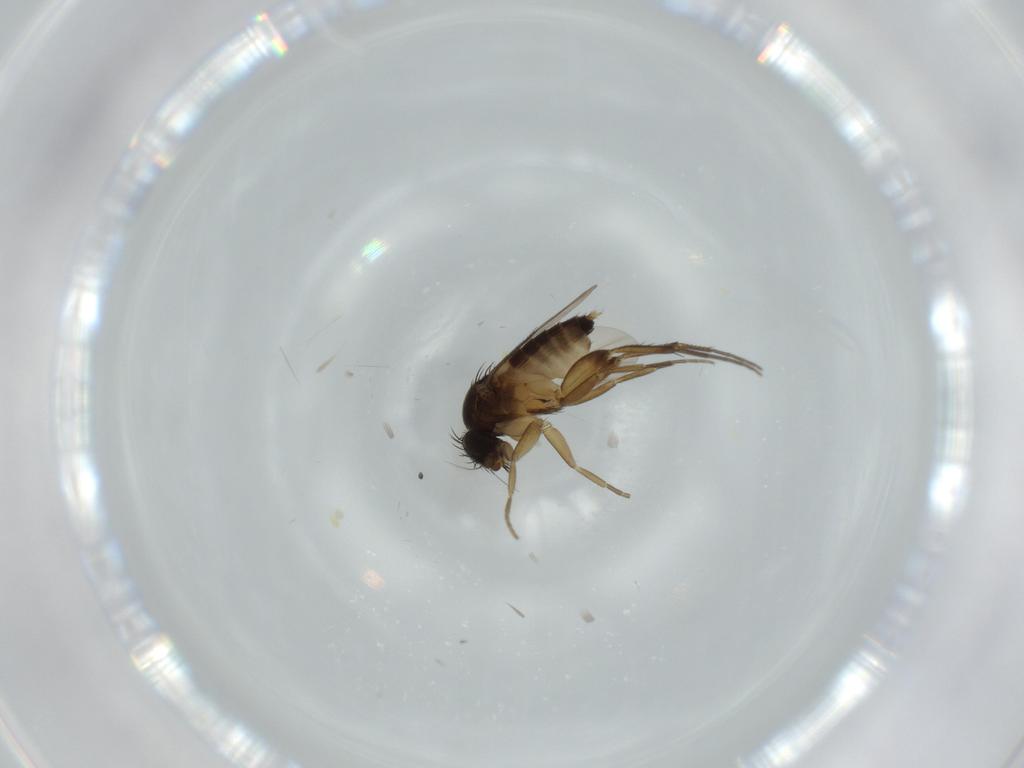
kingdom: Animalia
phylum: Arthropoda
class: Insecta
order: Diptera
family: Phoridae
